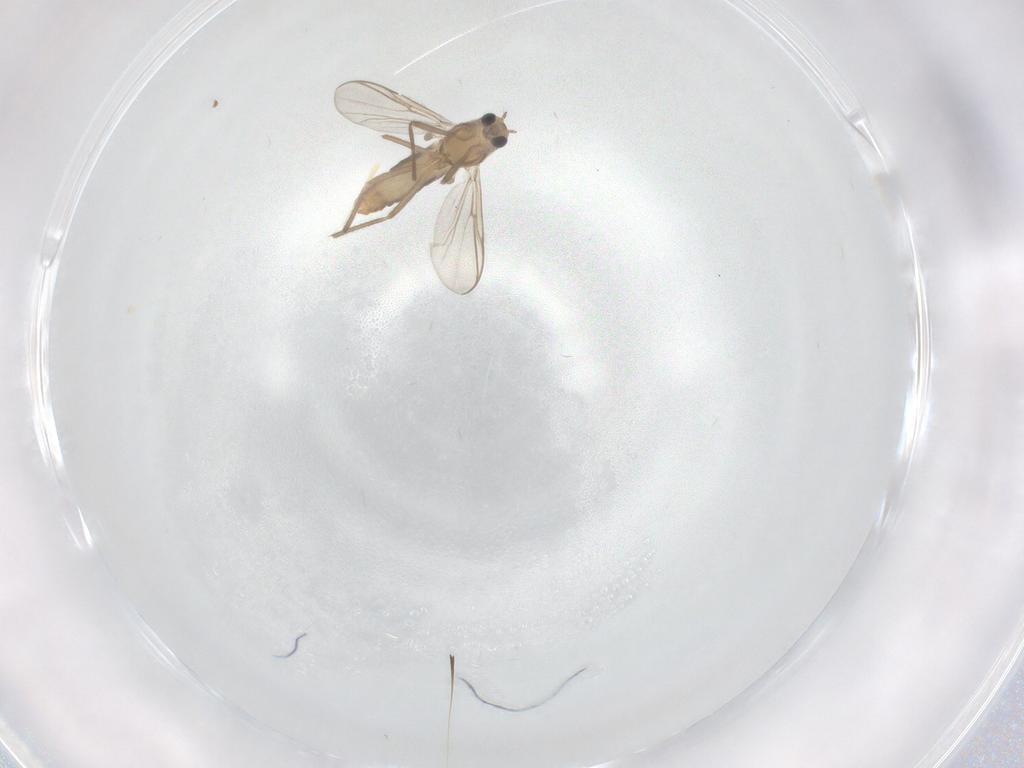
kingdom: Animalia
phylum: Arthropoda
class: Insecta
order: Diptera
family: Chironomidae
